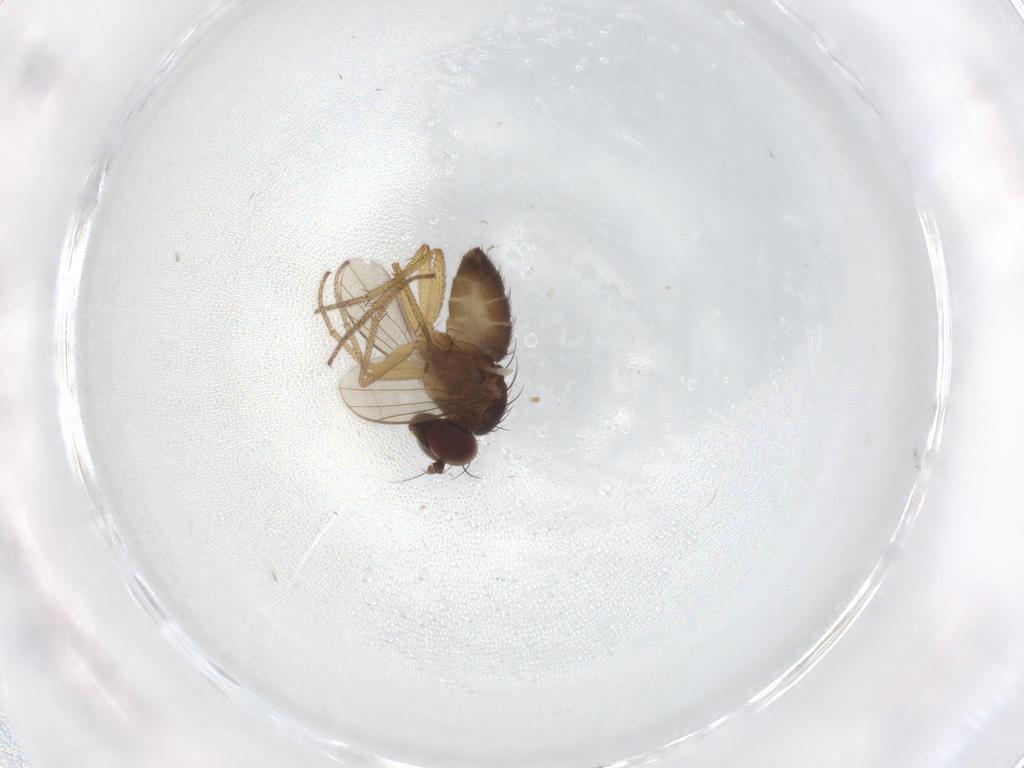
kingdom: Animalia
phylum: Arthropoda
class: Insecta
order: Diptera
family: Dolichopodidae
